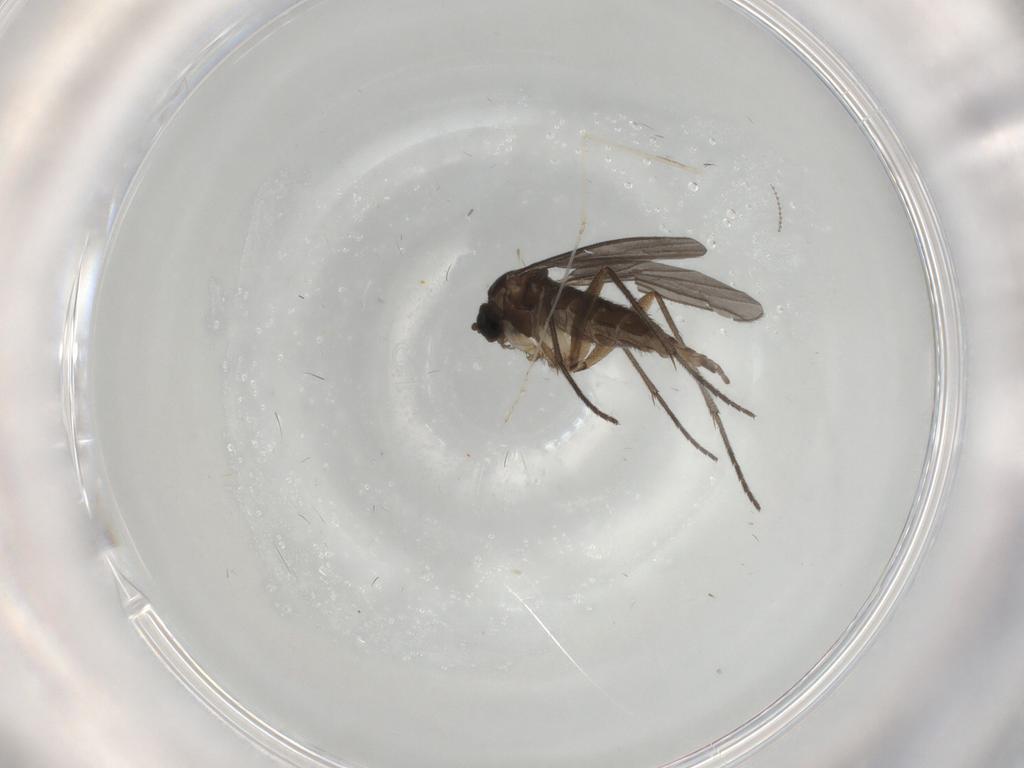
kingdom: Animalia
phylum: Arthropoda
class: Insecta
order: Diptera
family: Sciaridae
